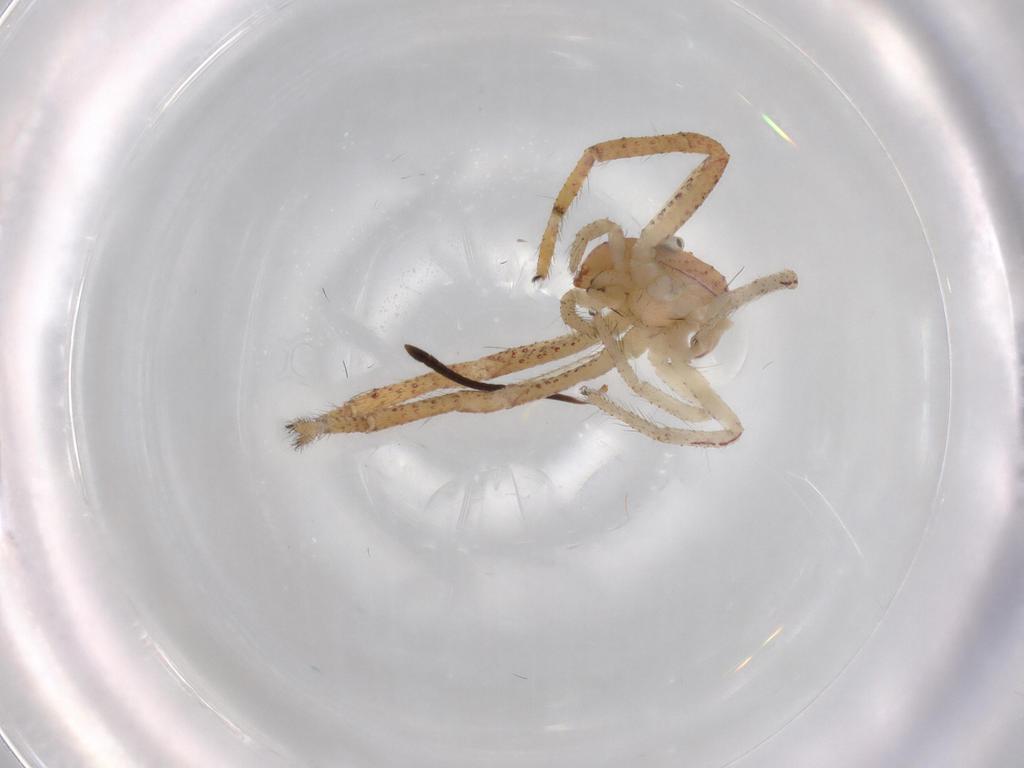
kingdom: Animalia
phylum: Arthropoda
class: Arachnida
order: Araneae
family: Thomisidae
